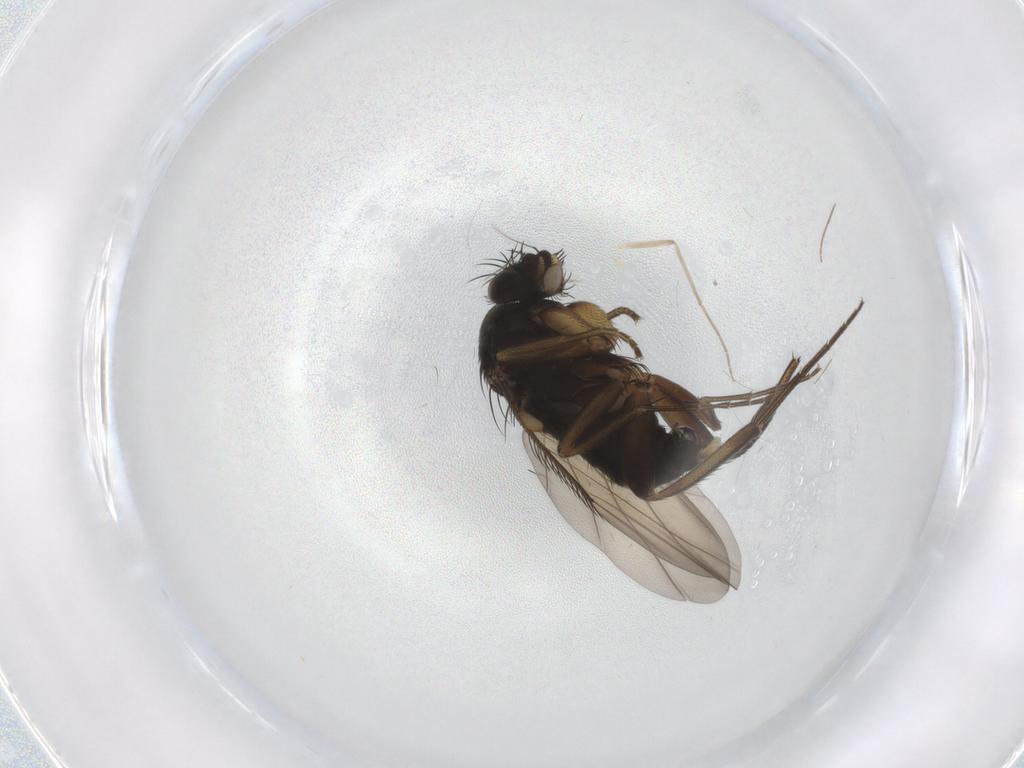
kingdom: Animalia
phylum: Arthropoda
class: Insecta
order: Diptera
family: Phoridae
